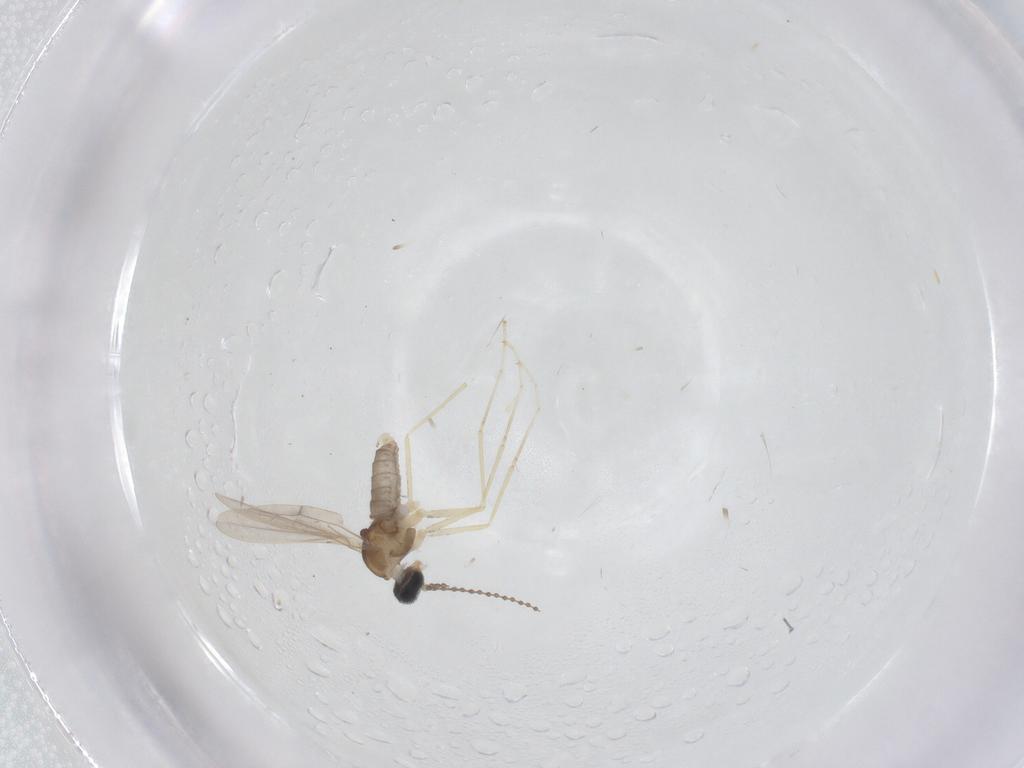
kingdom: Animalia
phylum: Arthropoda
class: Insecta
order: Diptera
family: Cecidomyiidae
